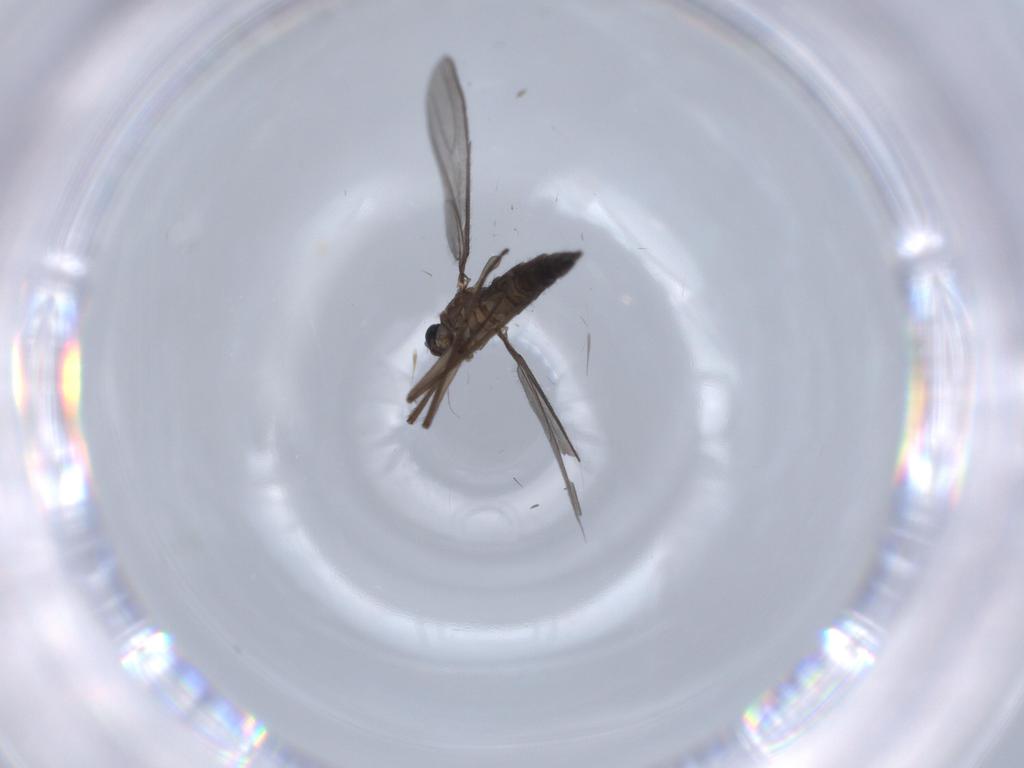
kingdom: Animalia
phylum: Arthropoda
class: Insecta
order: Diptera
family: Sciaridae
